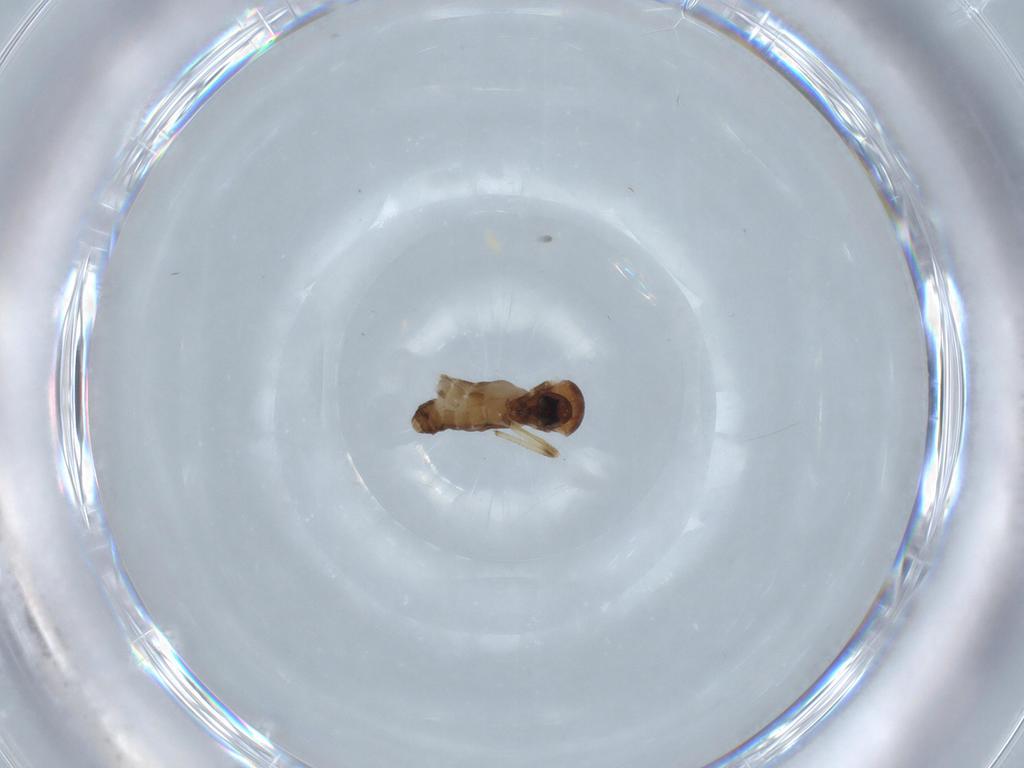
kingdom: Animalia
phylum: Arthropoda
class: Insecta
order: Diptera
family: Ceratopogonidae
